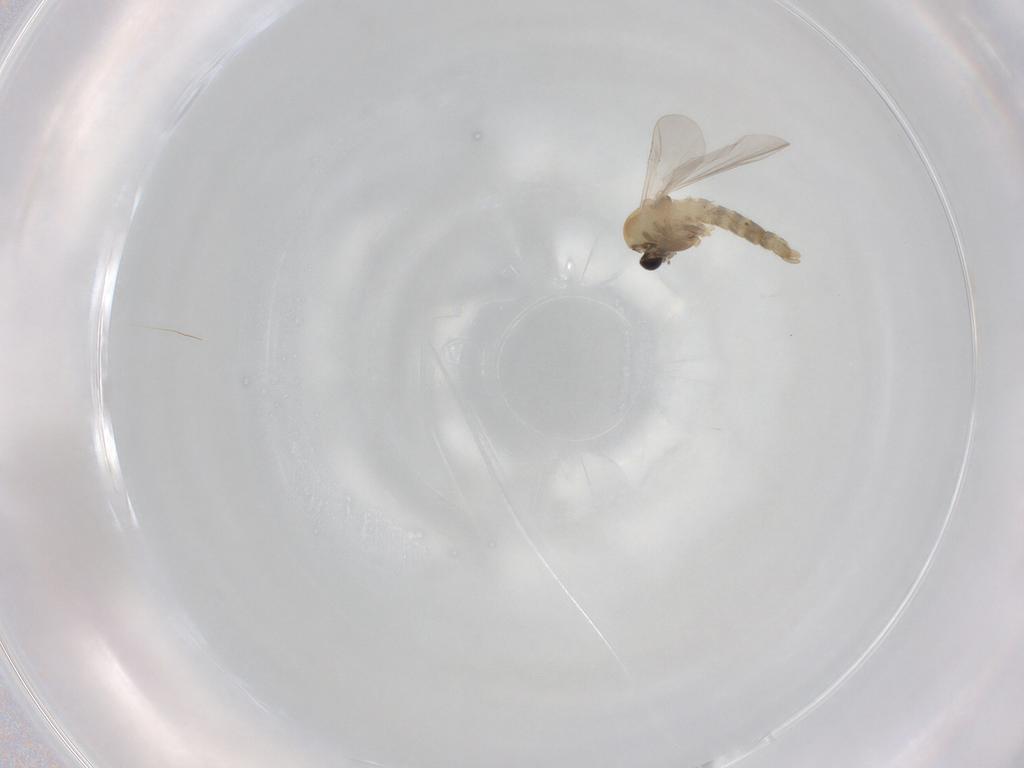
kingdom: Animalia
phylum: Arthropoda
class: Insecta
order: Diptera
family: Chironomidae
